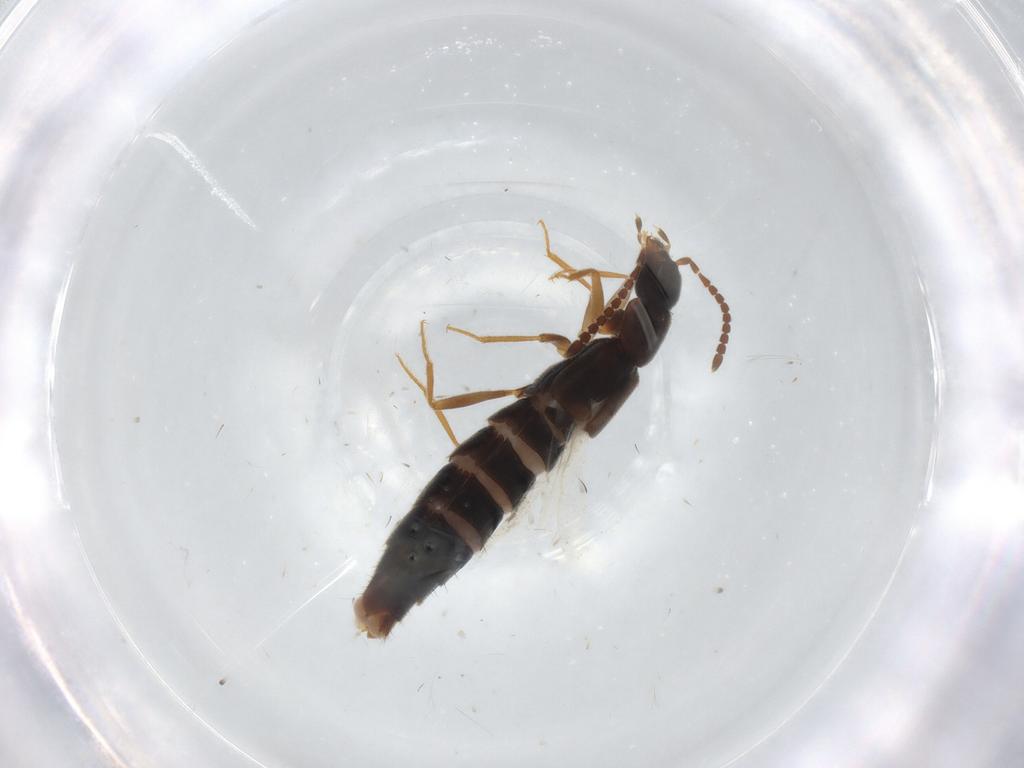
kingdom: Animalia
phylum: Arthropoda
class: Insecta
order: Coleoptera
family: Staphylinidae
